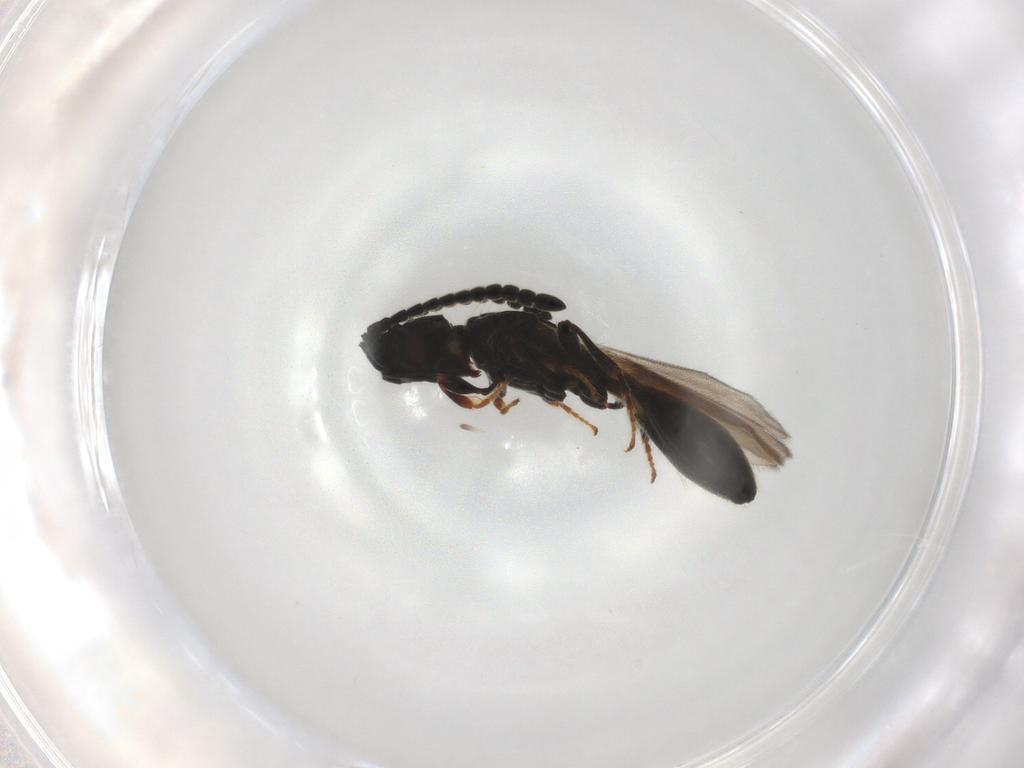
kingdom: Animalia
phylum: Arthropoda
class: Insecta
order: Hymenoptera
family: Diapriidae
